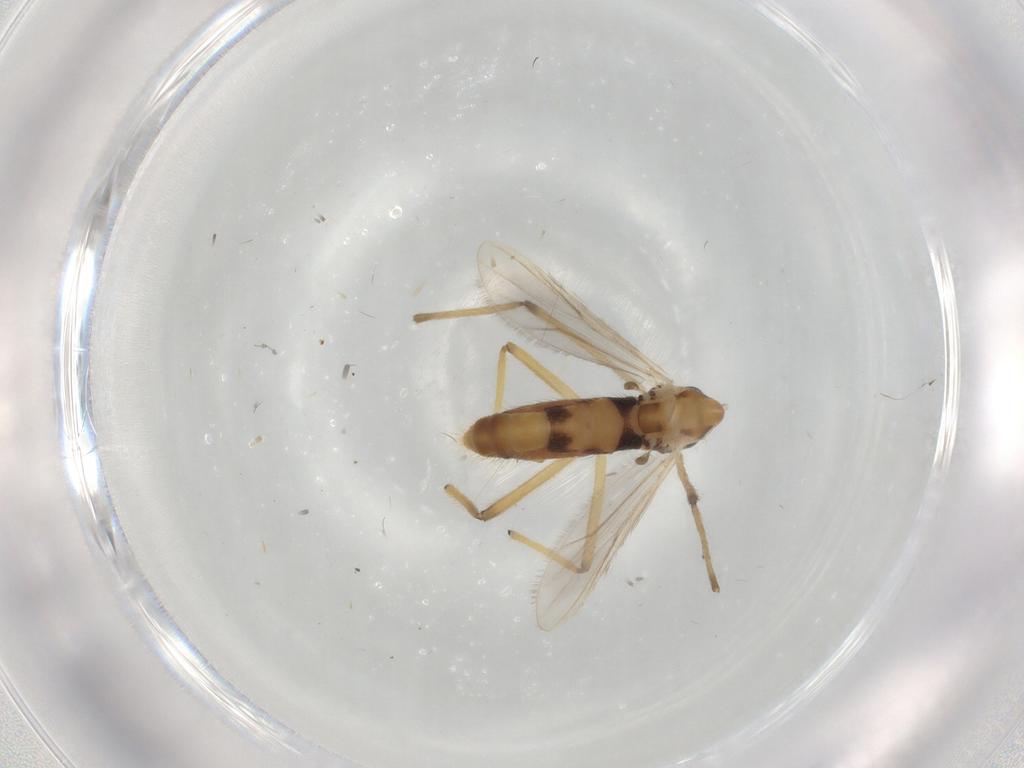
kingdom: Animalia
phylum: Arthropoda
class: Insecta
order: Diptera
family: Chironomidae
